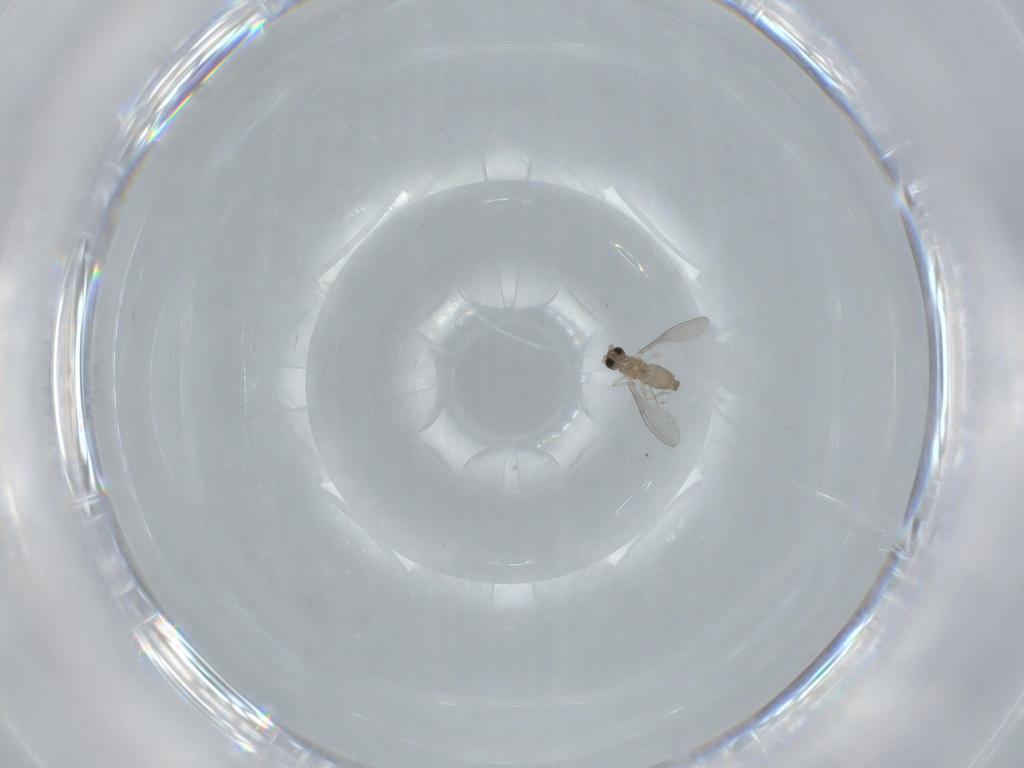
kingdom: Animalia
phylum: Arthropoda
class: Insecta
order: Diptera
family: Cecidomyiidae
